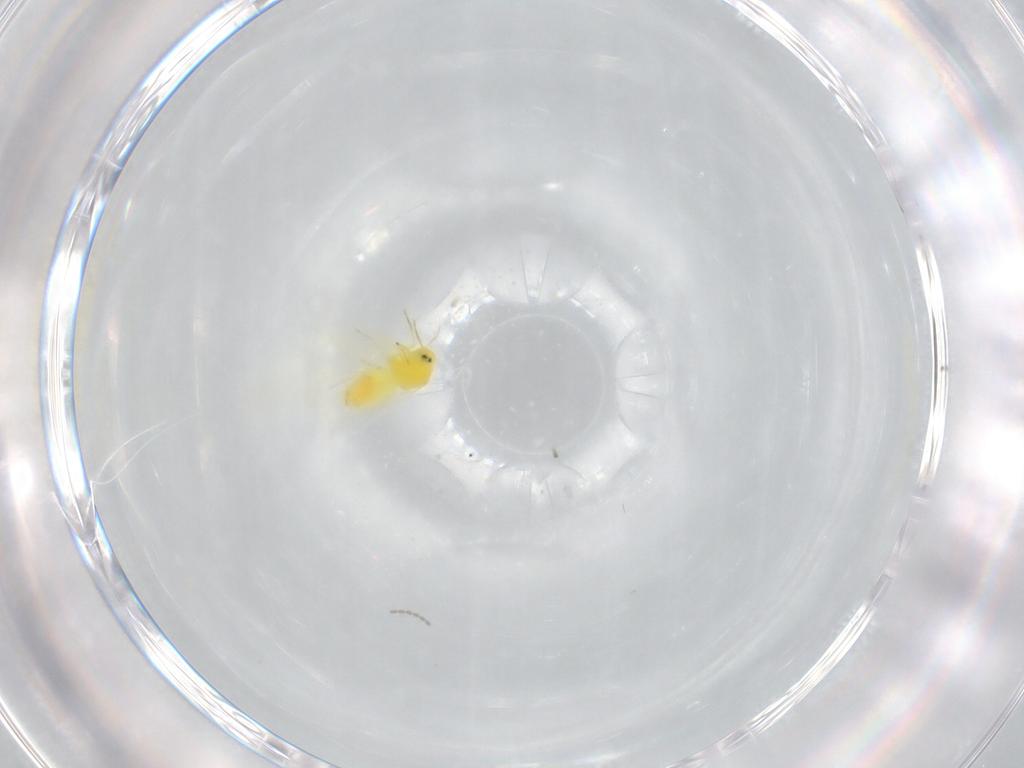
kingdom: Animalia
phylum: Arthropoda
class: Insecta
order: Hemiptera
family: Aleyrodidae
